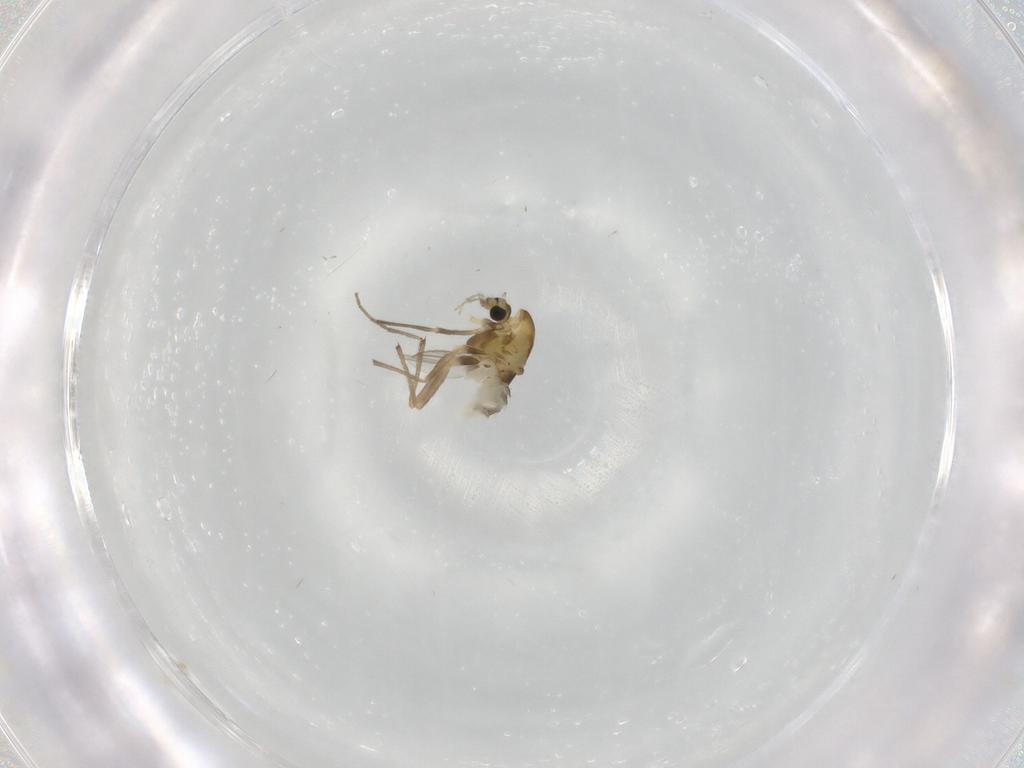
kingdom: Animalia
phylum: Arthropoda
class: Insecta
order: Diptera
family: Chironomidae
